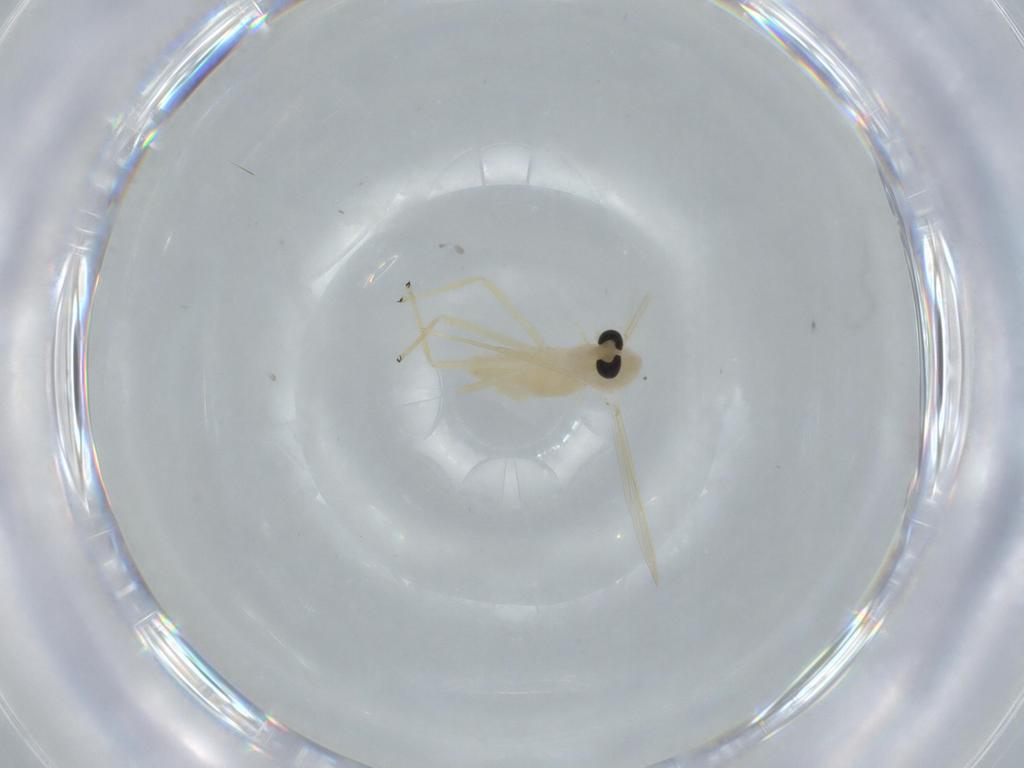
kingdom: Animalia
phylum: Arthropoda
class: Insecta
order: Diptera
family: Chironomidae
